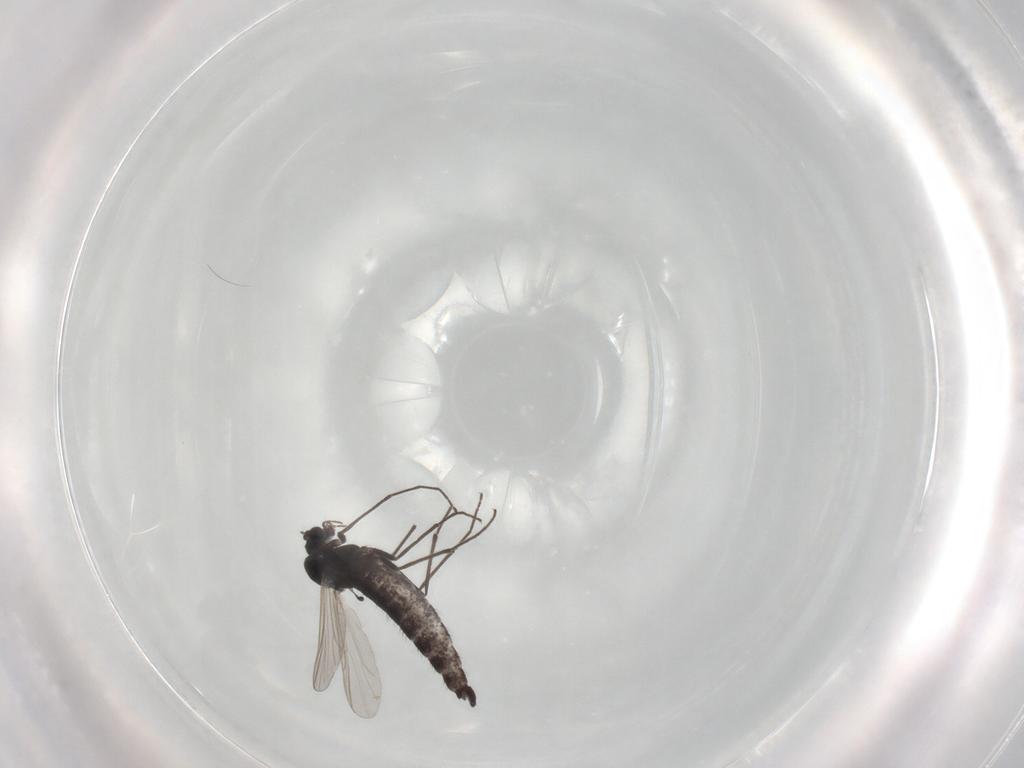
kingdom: Animalia
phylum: Arthropoda
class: Insecta
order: Diptera
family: Chironomidae
